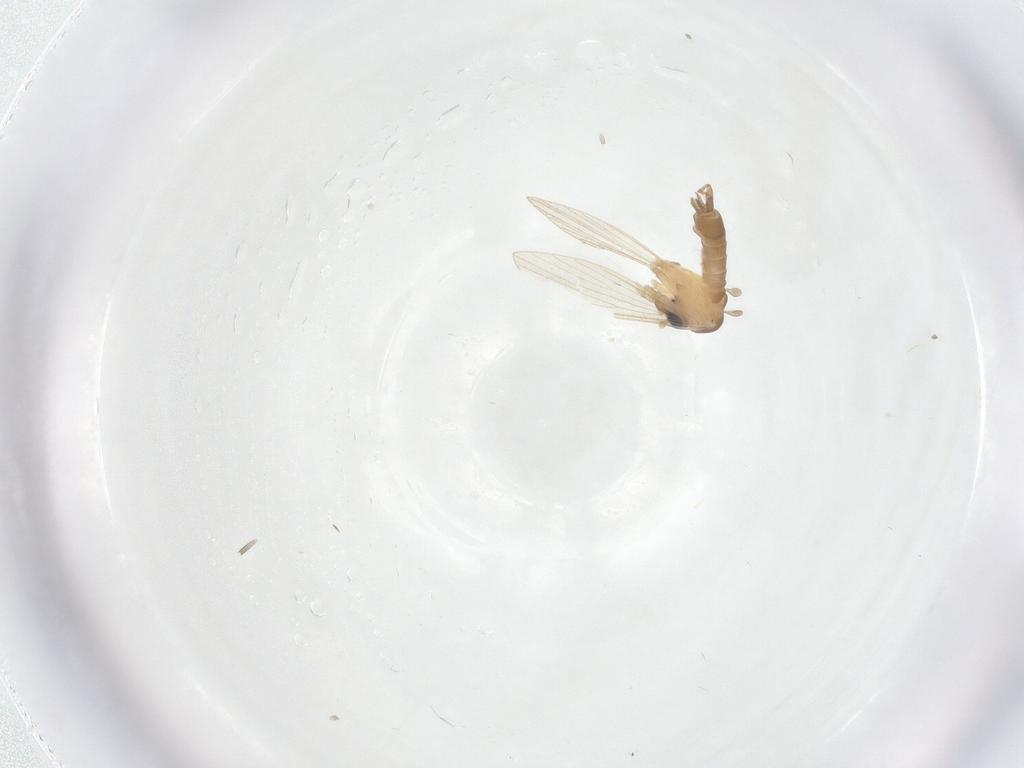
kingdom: Animalia
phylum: Arthropoda
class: Insecta
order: Diptera
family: Psychodidae
